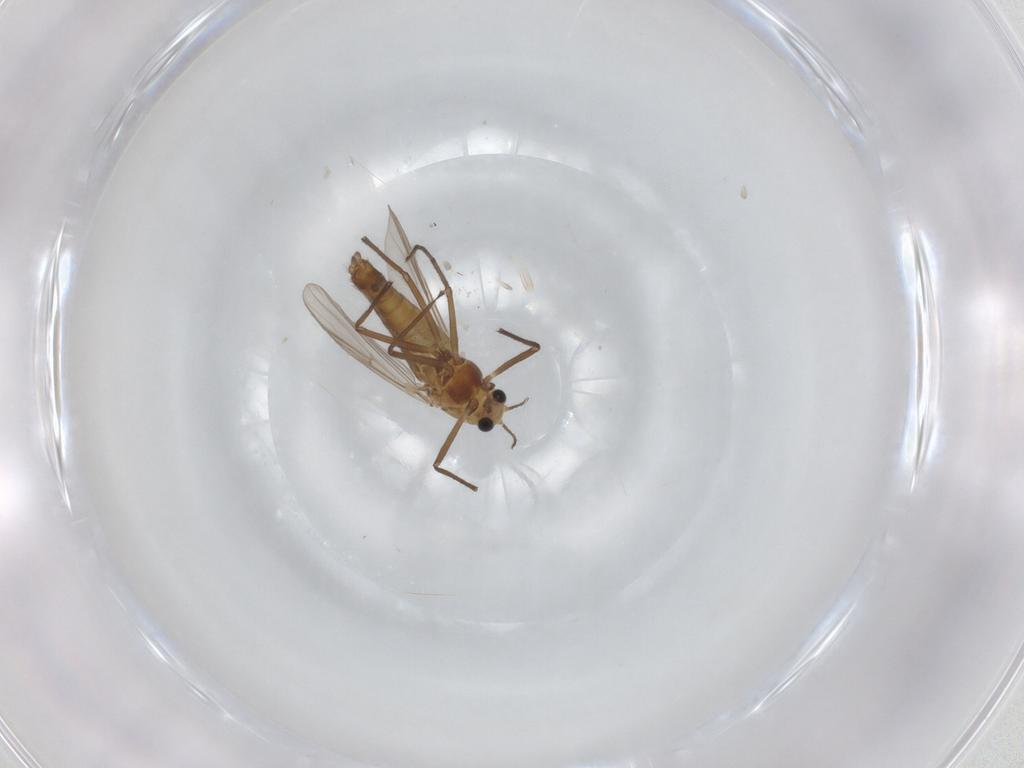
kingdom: Animalia
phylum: Arthropoda
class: Insecta
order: Diptera
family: Chironomidae
